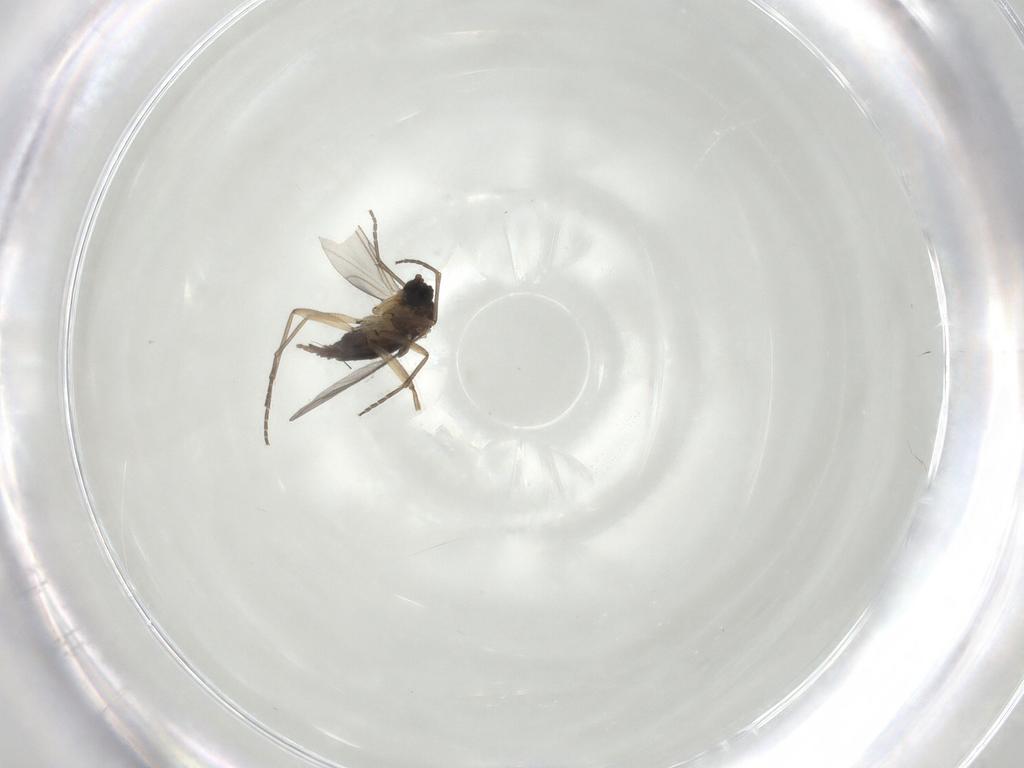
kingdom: Animalia
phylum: Arthropoda
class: Insecta
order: Diptera
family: Sciaridae
